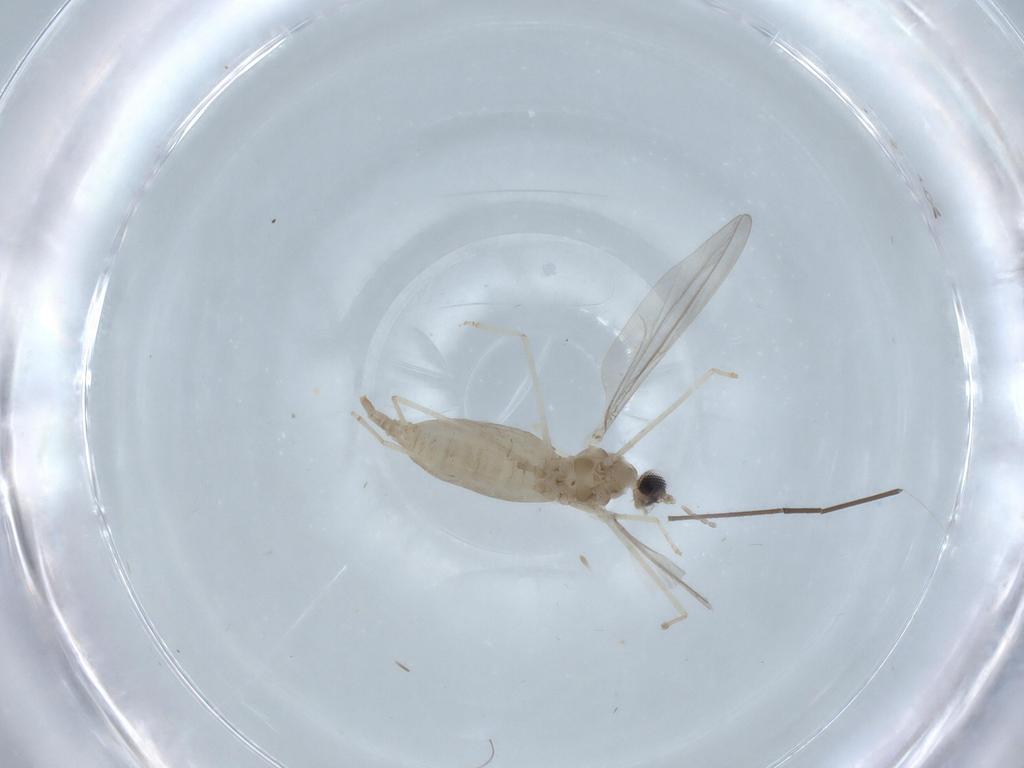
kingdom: Animalia
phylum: Arthropoda
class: Insecta
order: Diptera
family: Cecidomyiidae
